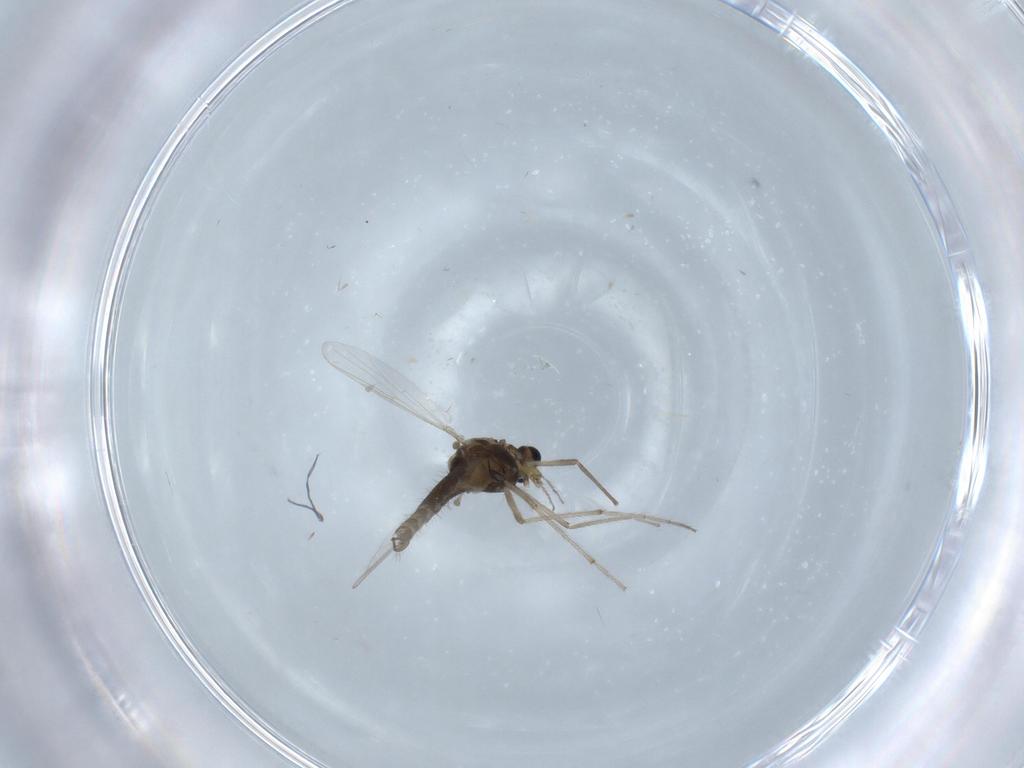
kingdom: Animalia
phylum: Arthropoda
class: Insecta
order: Diptera
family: Chironomidae
